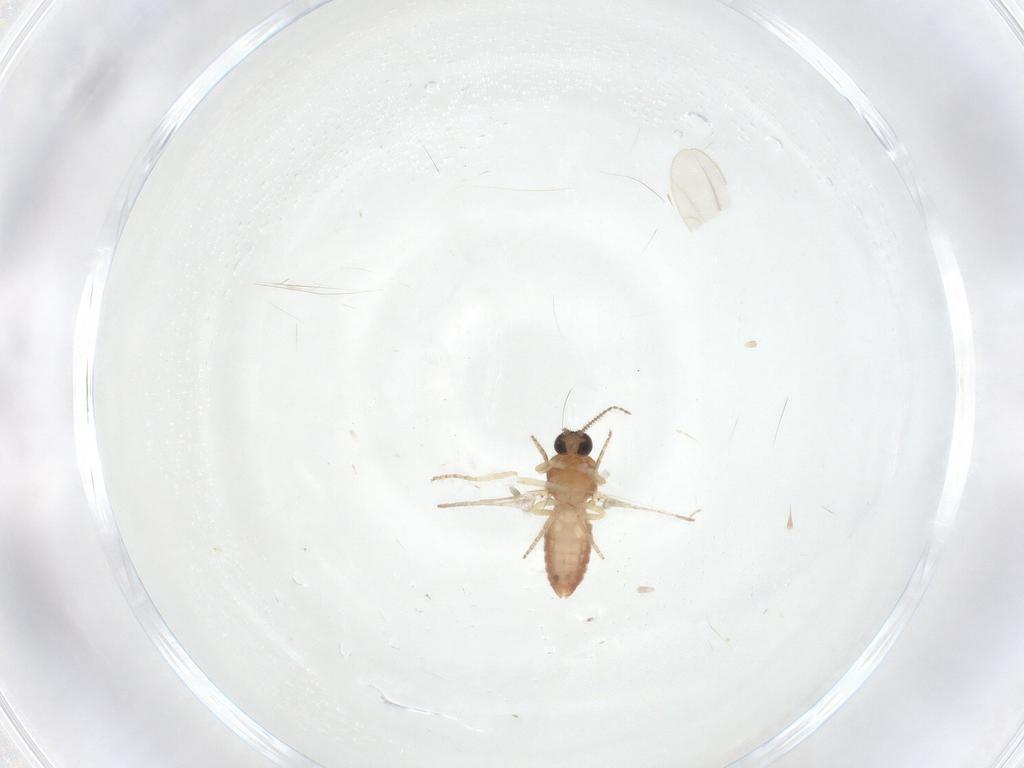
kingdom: Animalia
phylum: Arthropoda
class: Insecta
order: Diptera
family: Ceratopogonidae
